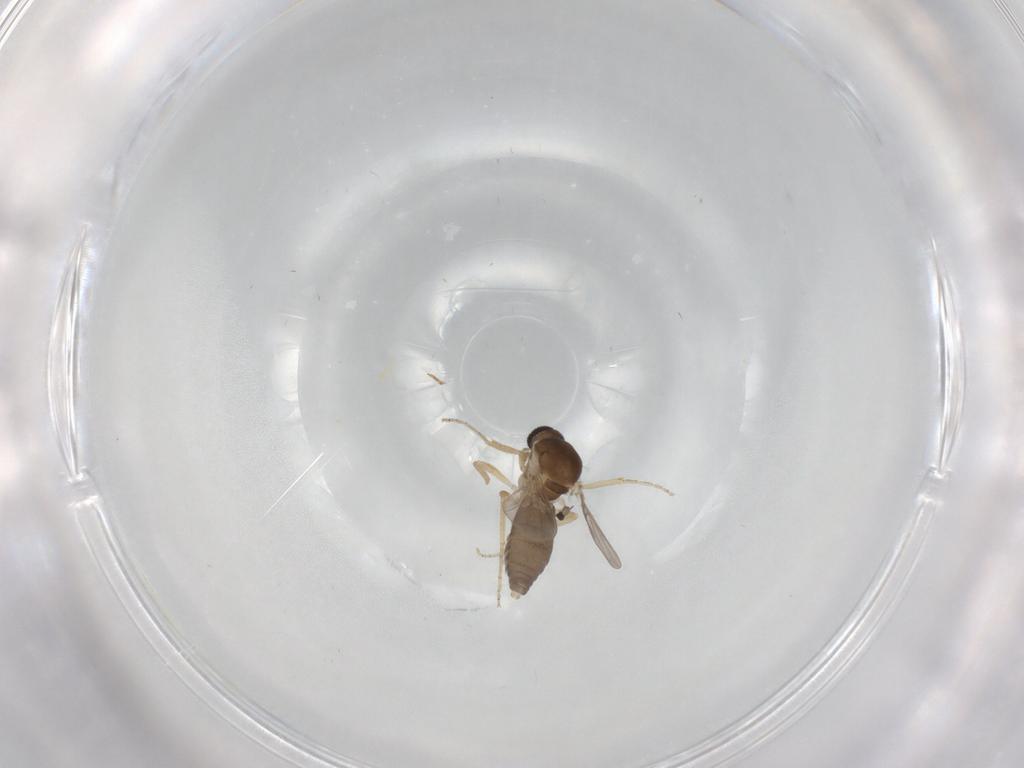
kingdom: Animalia
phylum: Arthropoda
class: Insecta
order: Diptera
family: Ceratopogonidae
